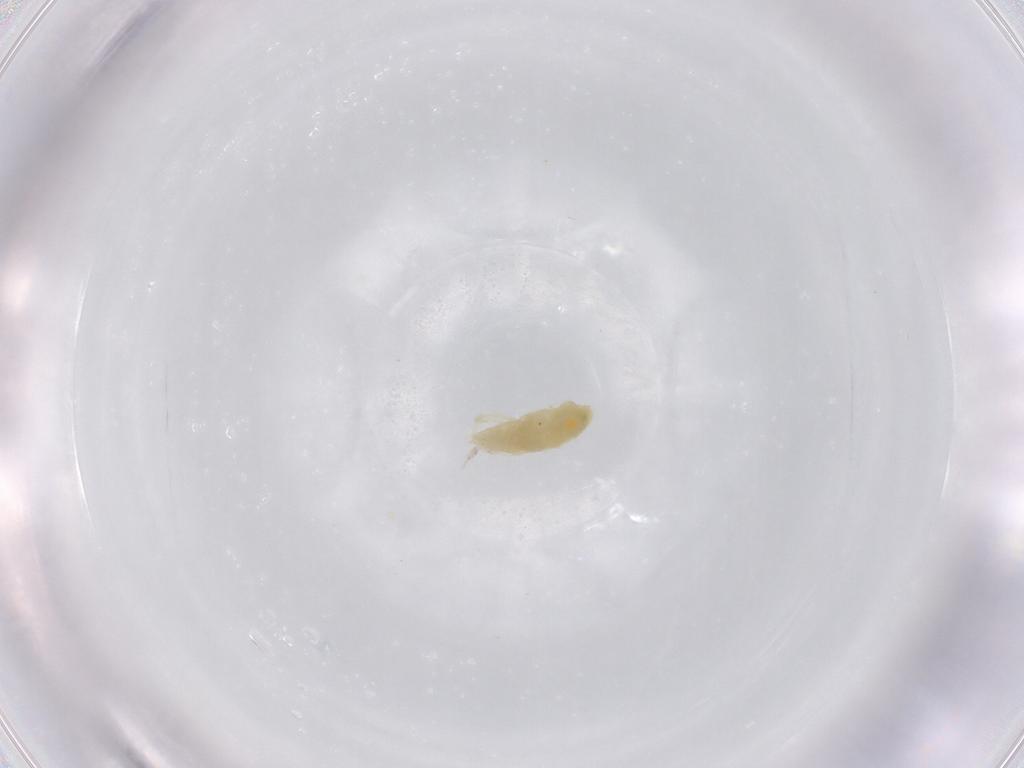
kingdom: Animalia
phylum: Arthropoda
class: Arachnida
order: Trombidiformes
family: Rhagidiidae
